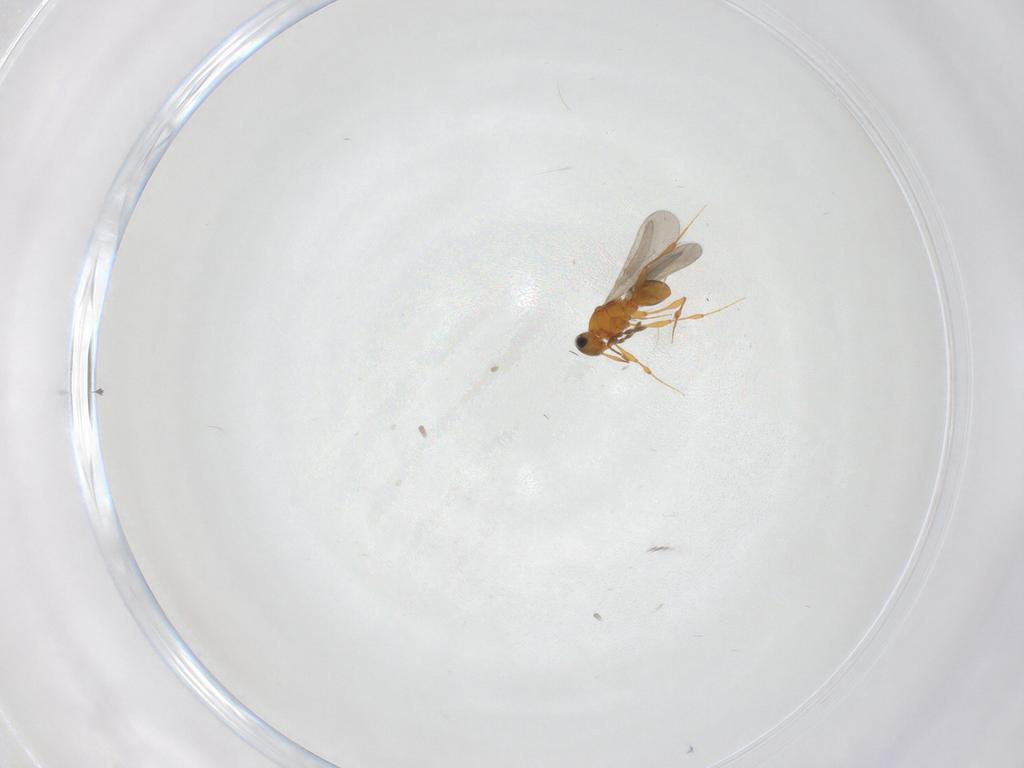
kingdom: Animalia
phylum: Arthropoda
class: Insecta
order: Hymenoptera
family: Platygastridae
